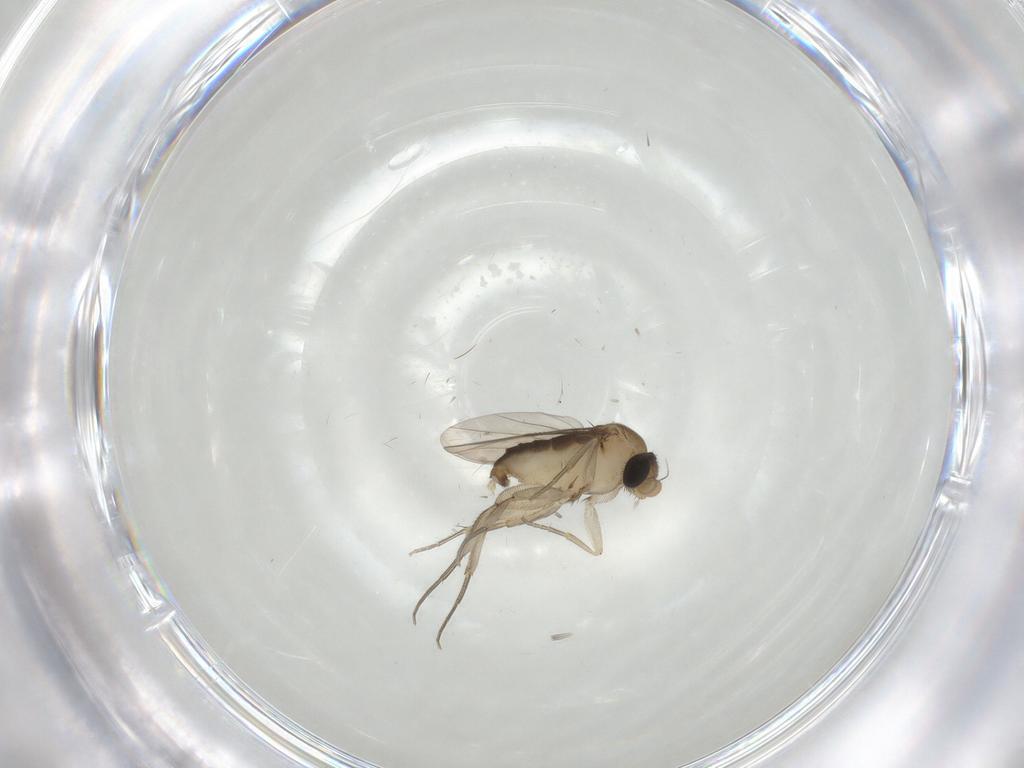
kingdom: Animalia
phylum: Arthropoda
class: Insecta
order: Diptera
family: Phoridae
